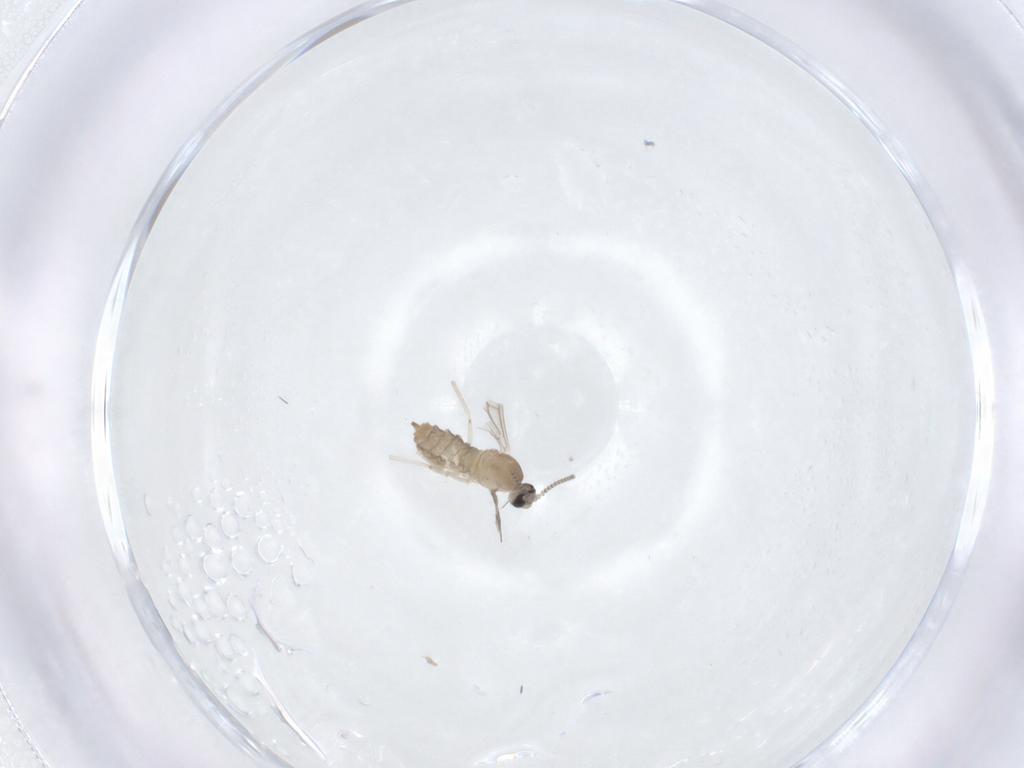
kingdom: Animalia
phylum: Arthropoda
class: Insecta
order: Diptera
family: Cecidomyiidae
